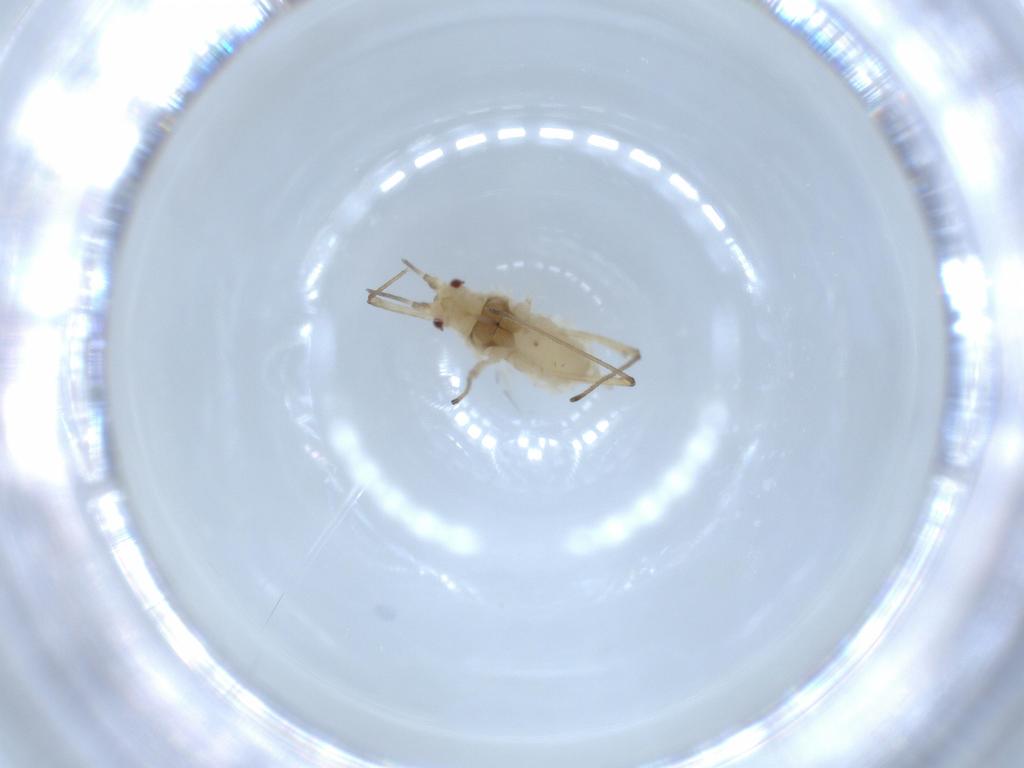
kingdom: Animalia
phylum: Arthropoda
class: Insecta
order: Hemiptera
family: Aphididae
